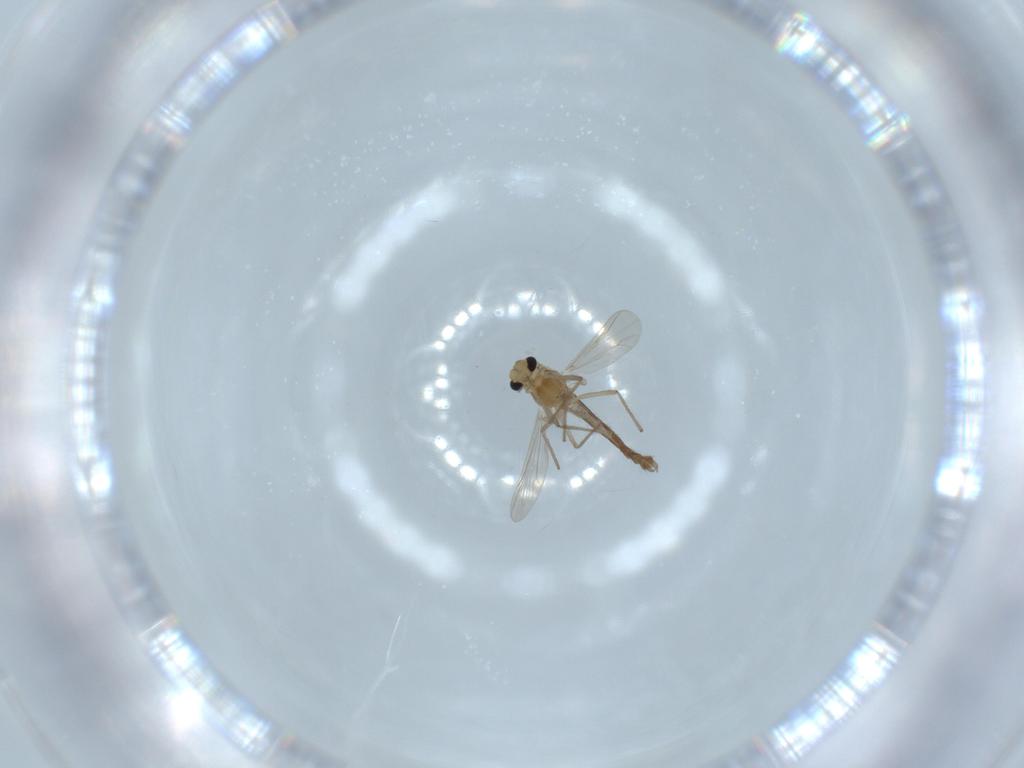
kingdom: Animalia
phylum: Arthropoda
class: Insecta
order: Diptera
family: Chironomidae
